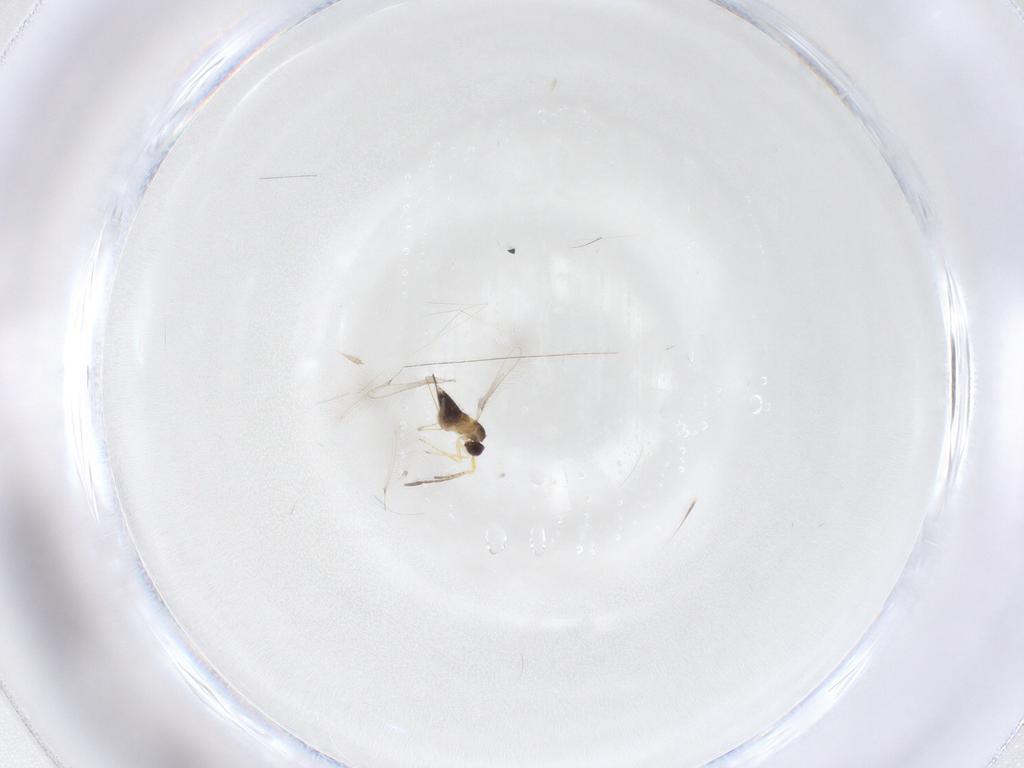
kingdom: Animalia
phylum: Arthropoda
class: Insecta
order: Hymenoptera
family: Mymaridae
